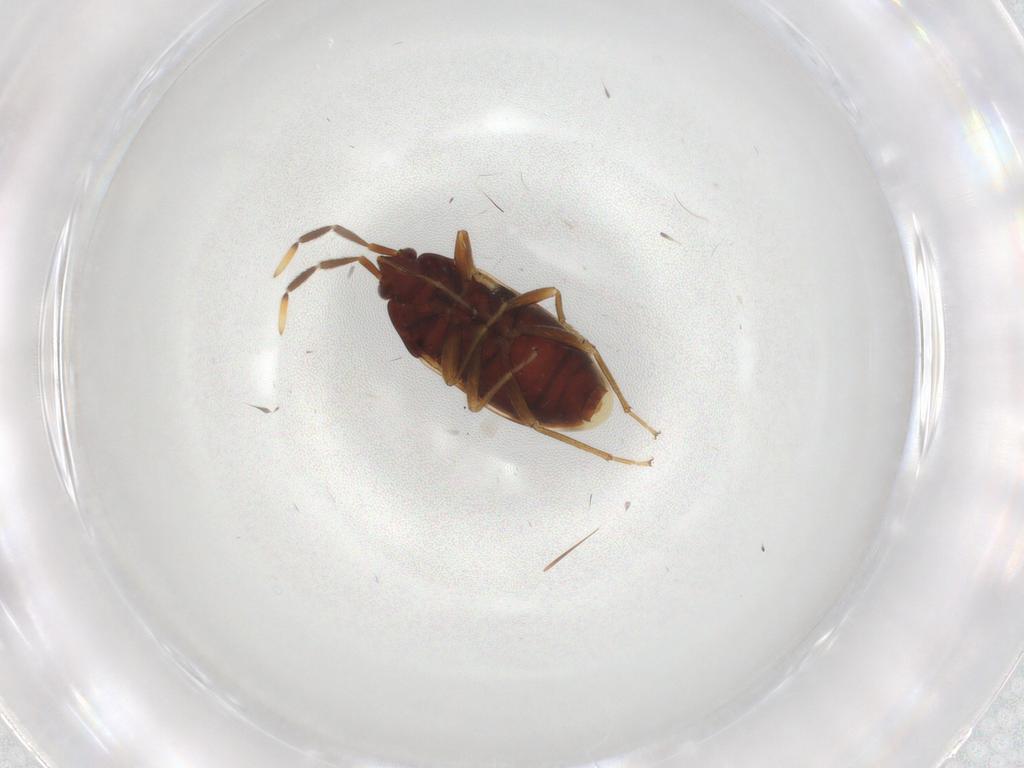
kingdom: Animalia
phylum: Arthropoda
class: Insecta
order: Hemiptera
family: Rhyparochromidae
